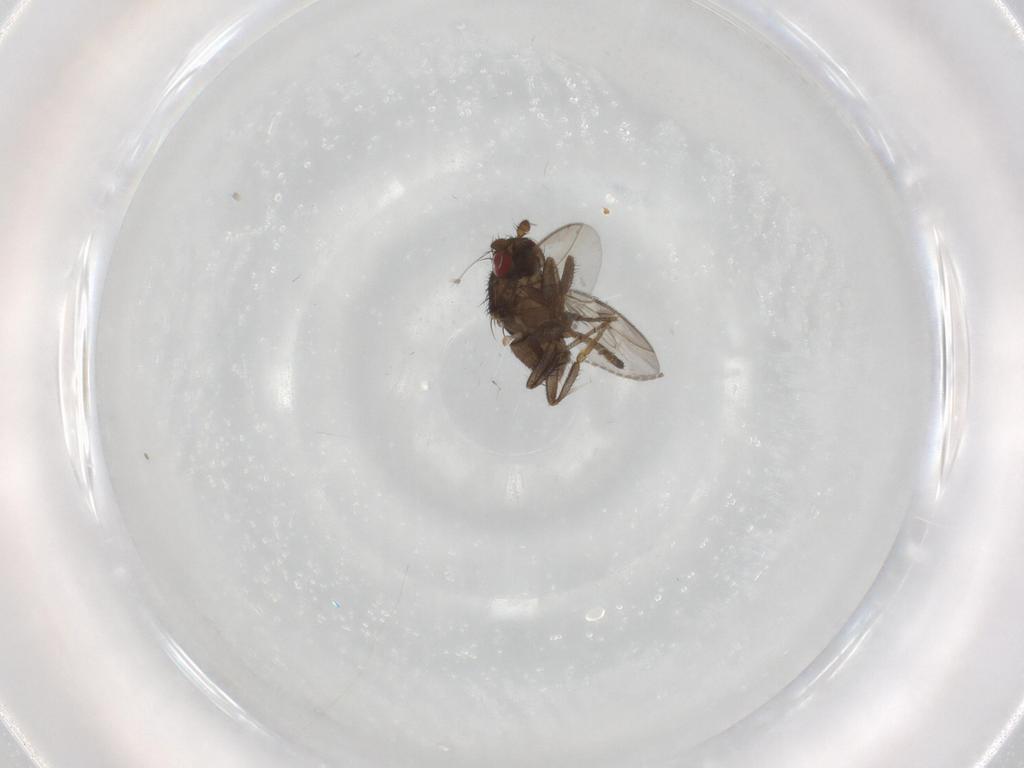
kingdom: Animalia
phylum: Arthropoda
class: Insecta
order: Diptera
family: Sphaeroceridae
